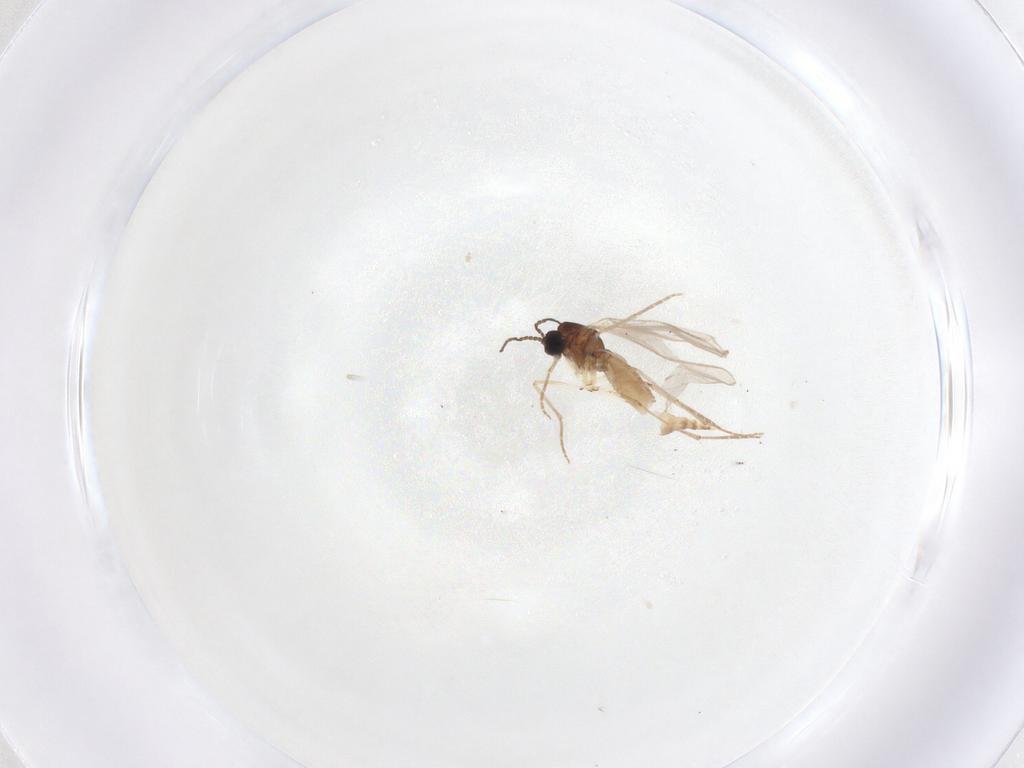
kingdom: Animalia
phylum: Arthropoda
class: Insecta
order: Diptera
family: Sciaridae
